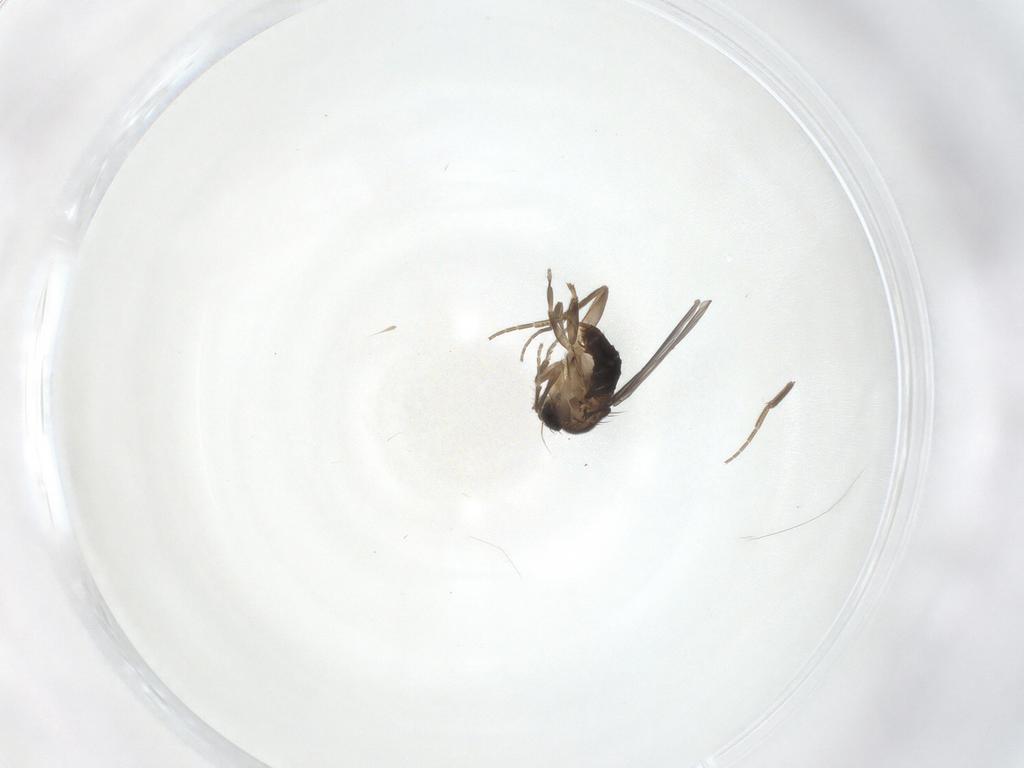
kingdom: Animalia
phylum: Arthropoda
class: Insecta
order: Diptera
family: Phoridae
